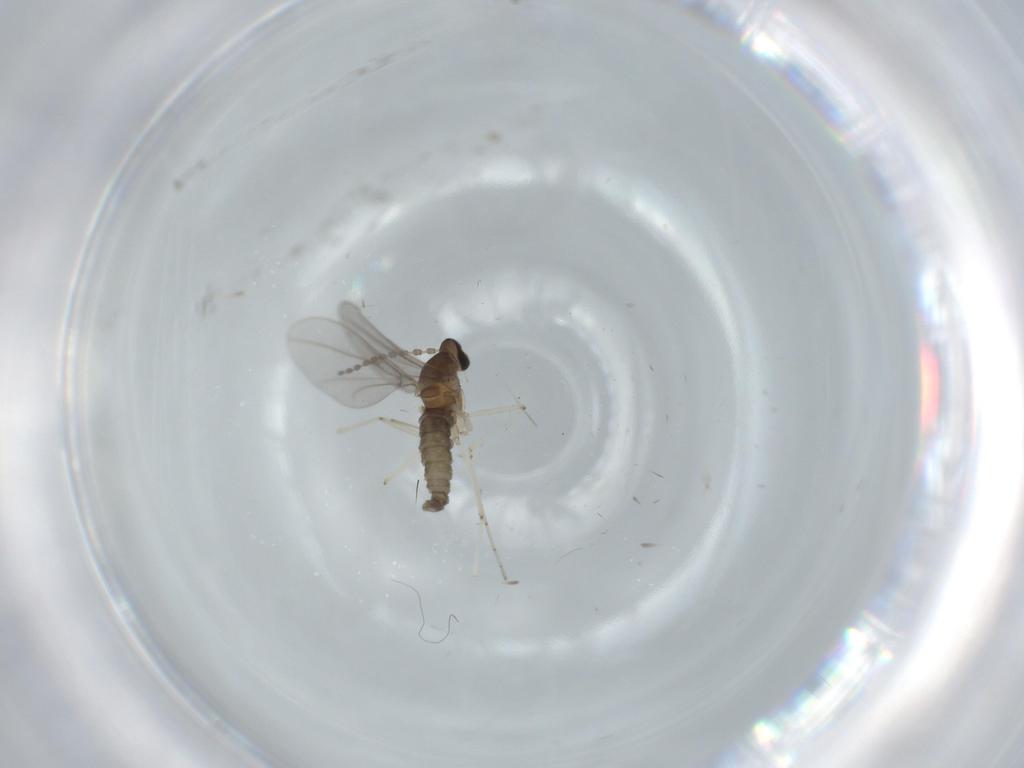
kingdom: Animalia
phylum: Arthropoda
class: Insecta
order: Diptera
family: Cecidomyiidae
